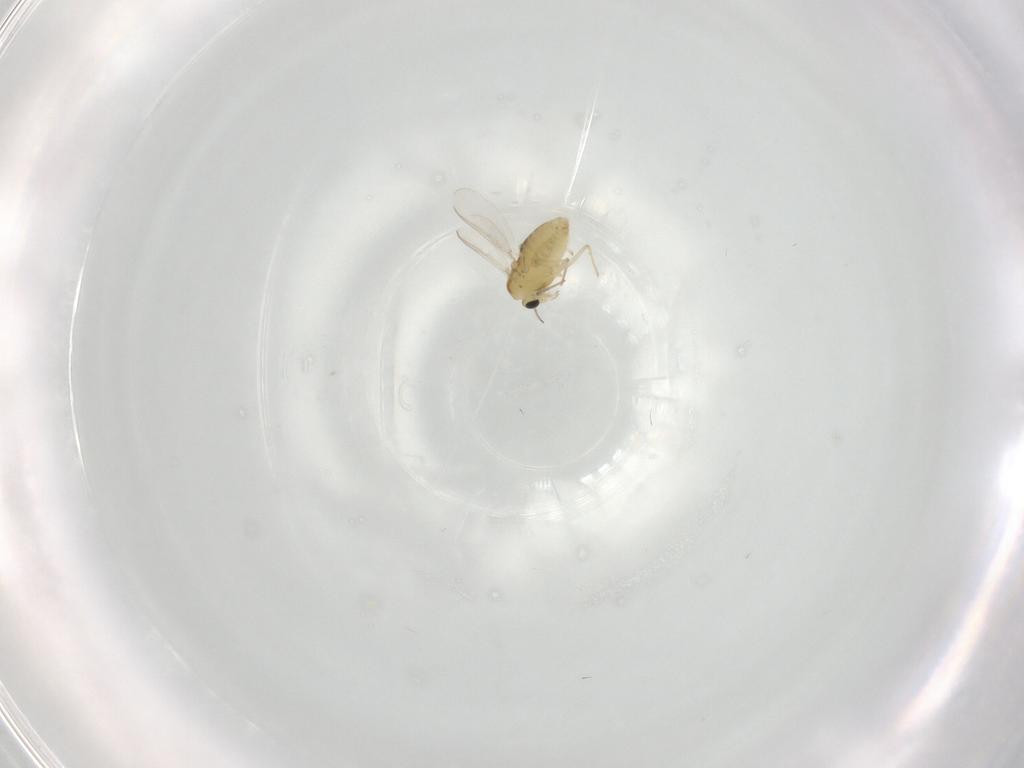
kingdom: Animalia
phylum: Arthropoda
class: Insecta
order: Diptera
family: Chironomidae
